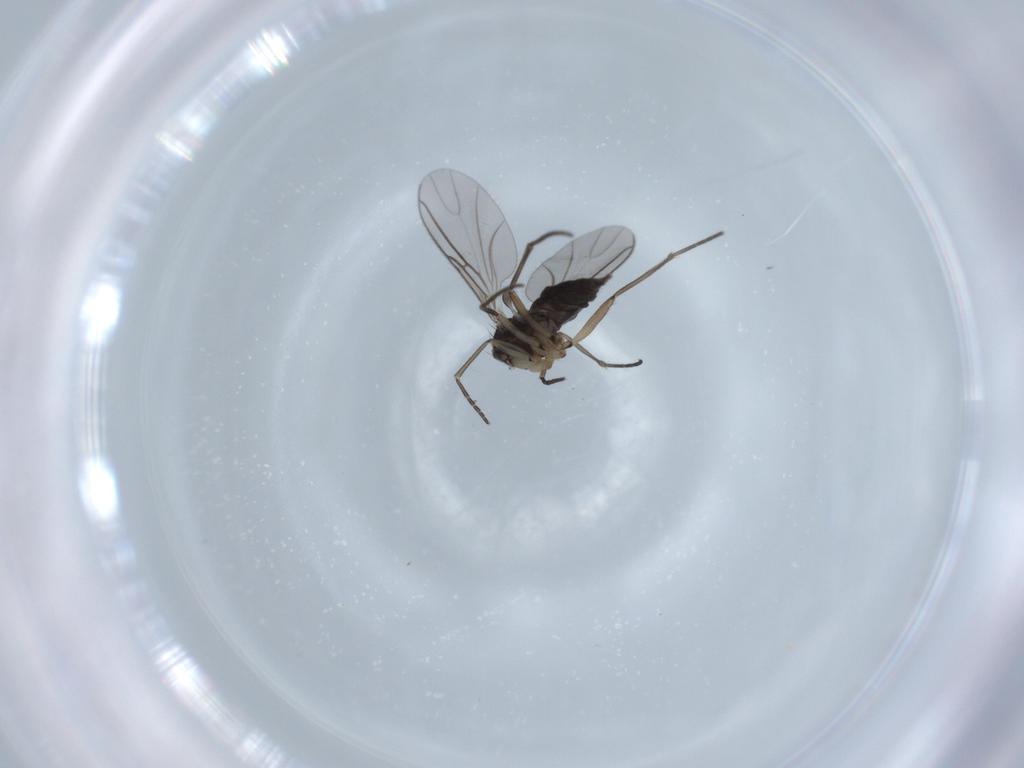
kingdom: Animalia
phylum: Arthropoda
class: Insecta
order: Diptera
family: Sciaridae
